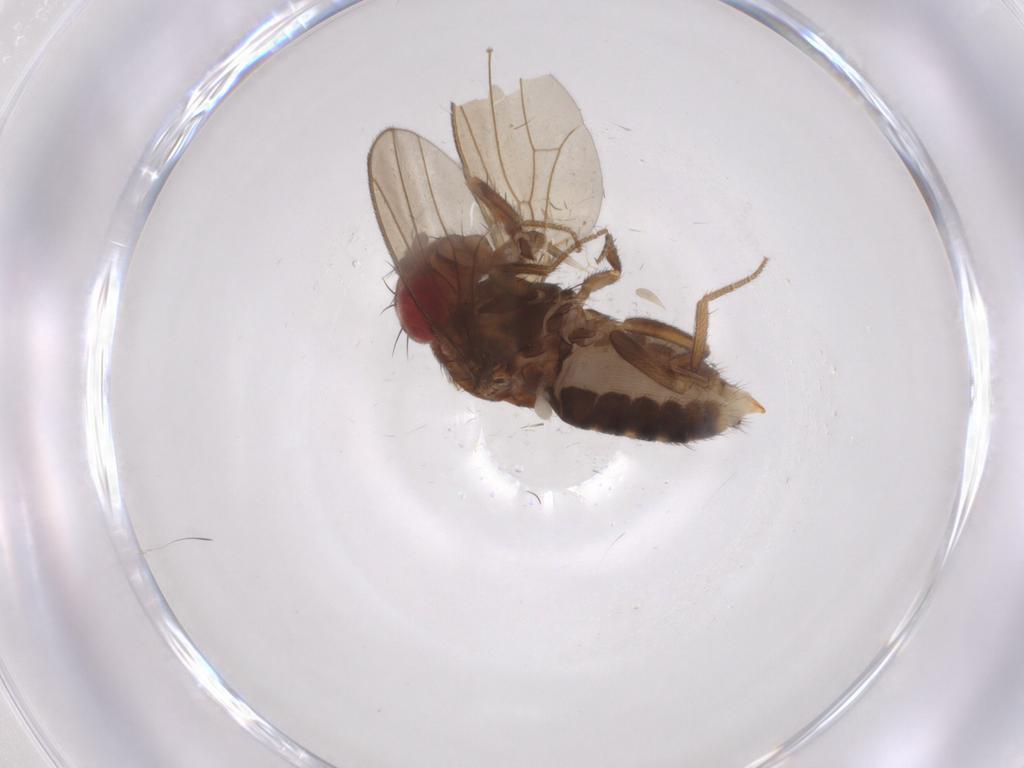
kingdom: Animalia
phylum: Arthropoda
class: Insecta
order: Diptera
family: Drosophilidae
